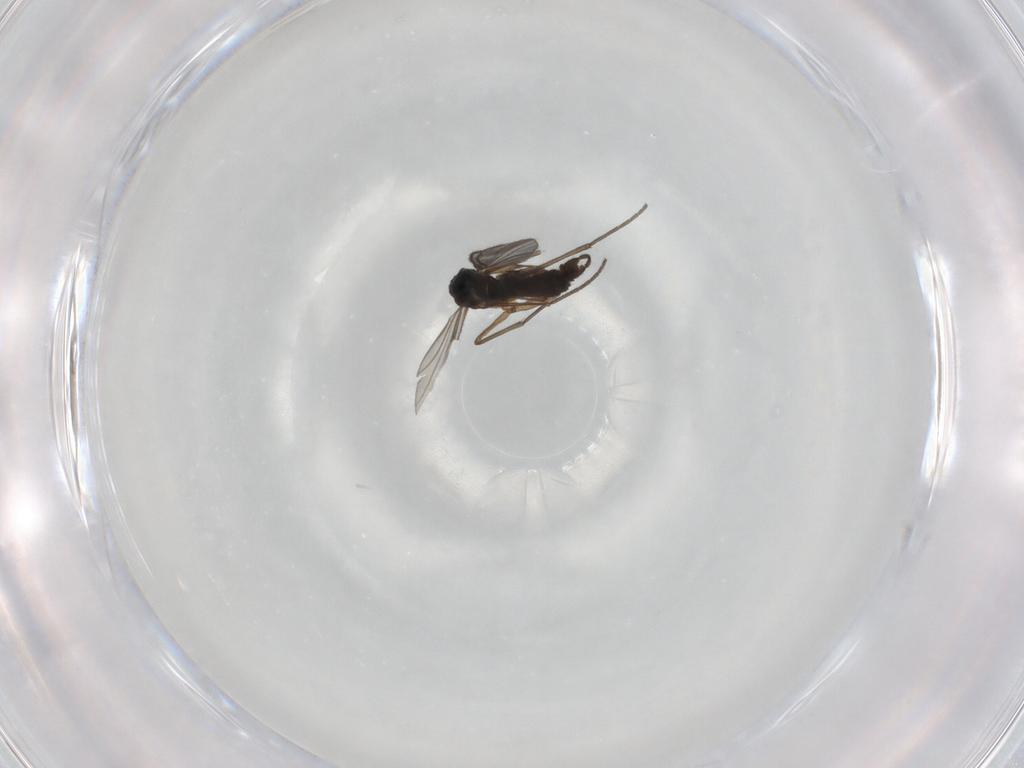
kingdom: Animalia
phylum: Arthropoda
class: Insecta
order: Diptera
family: Sciaridae
